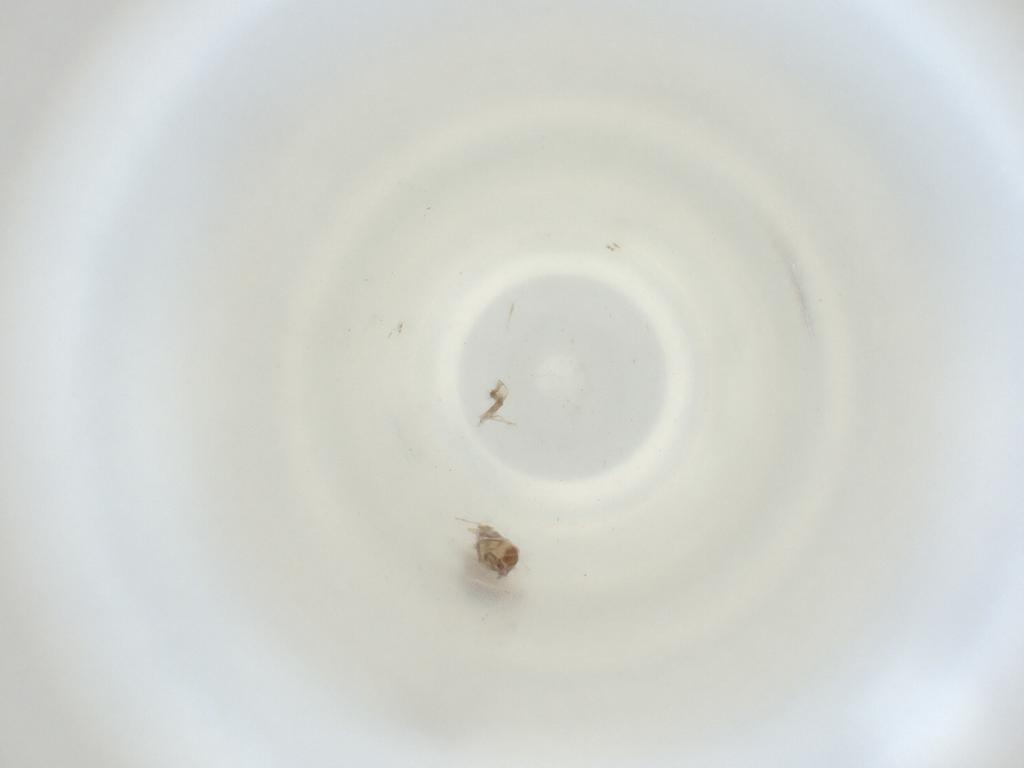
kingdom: Animalia
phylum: Arthropoda
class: Insecta
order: Diptera
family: Cecidomyiidae
